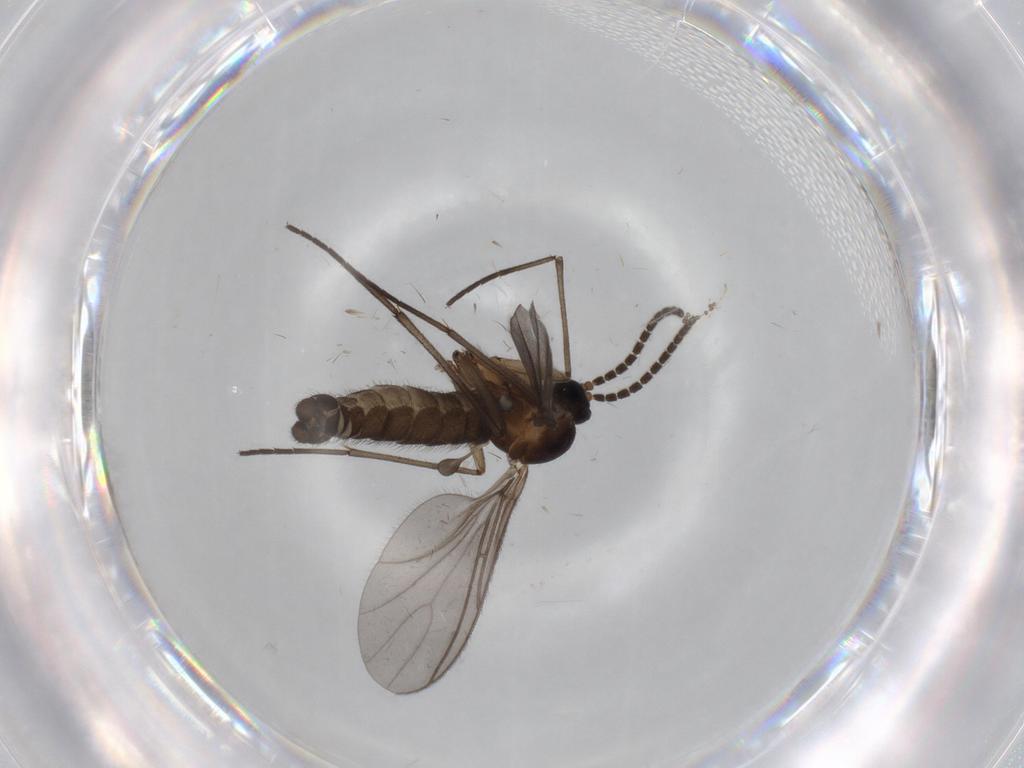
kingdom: Animalia
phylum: Arthropoda
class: Insecta
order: Diptera
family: Sciaridae
